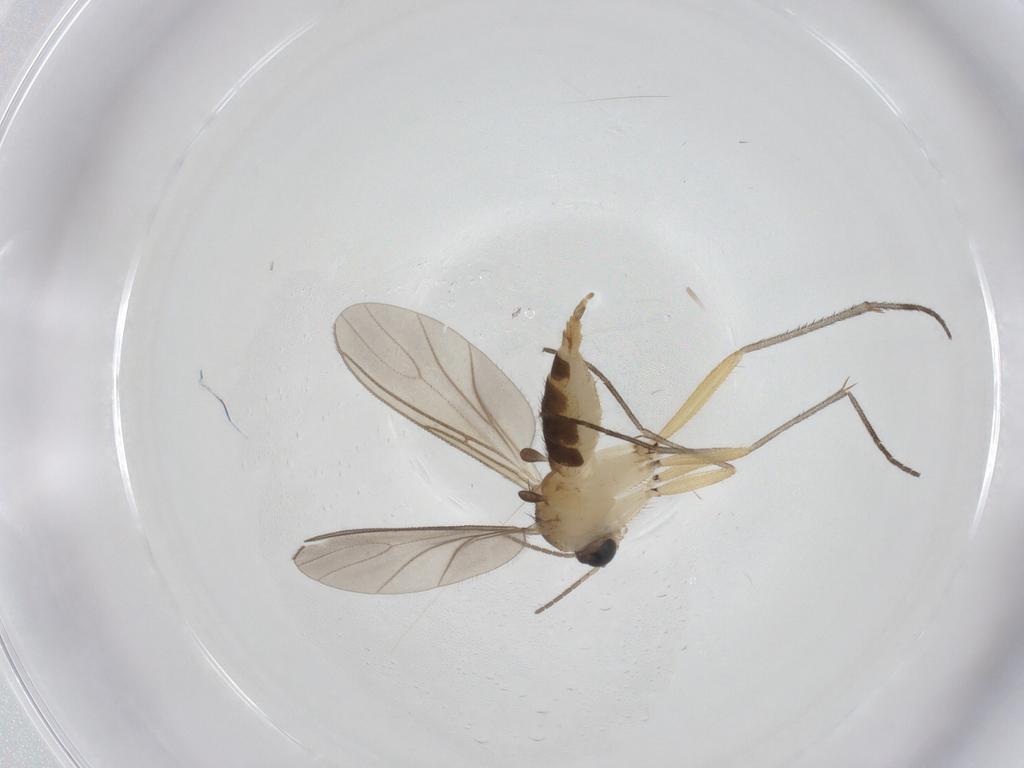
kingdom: Animalia
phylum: Arthropoda
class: Insecta
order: Diptera
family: Sciaridae
